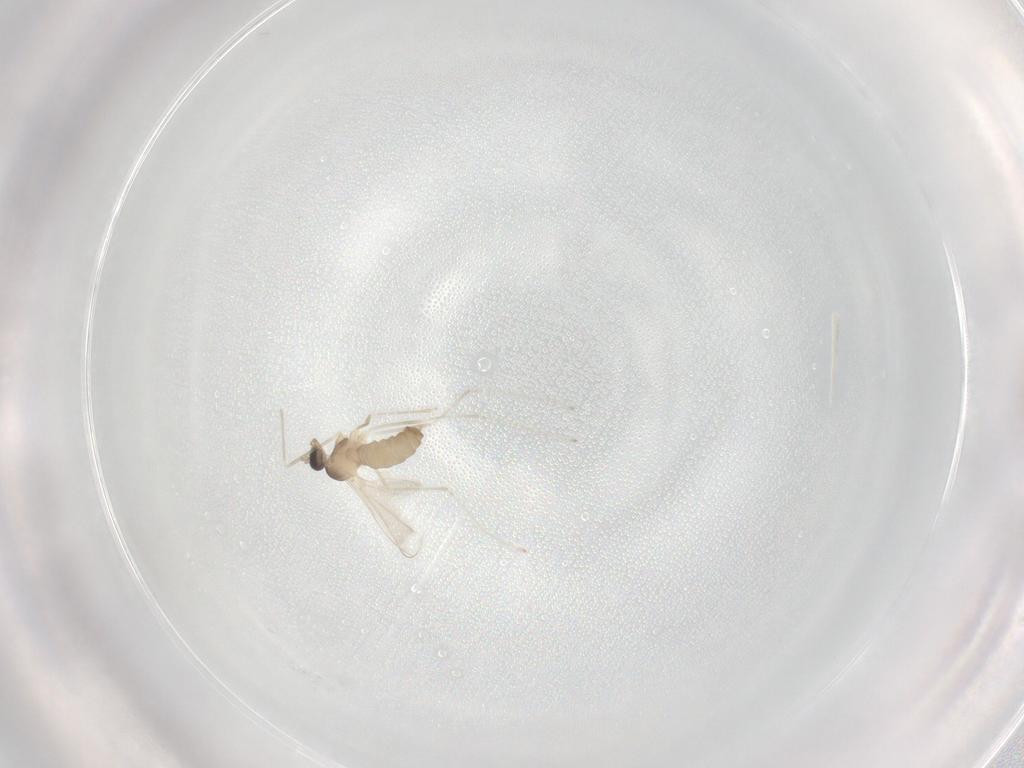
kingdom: Animalia
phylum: Arthropoda
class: Insecta
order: Diptera
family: Cecidomyiidae
